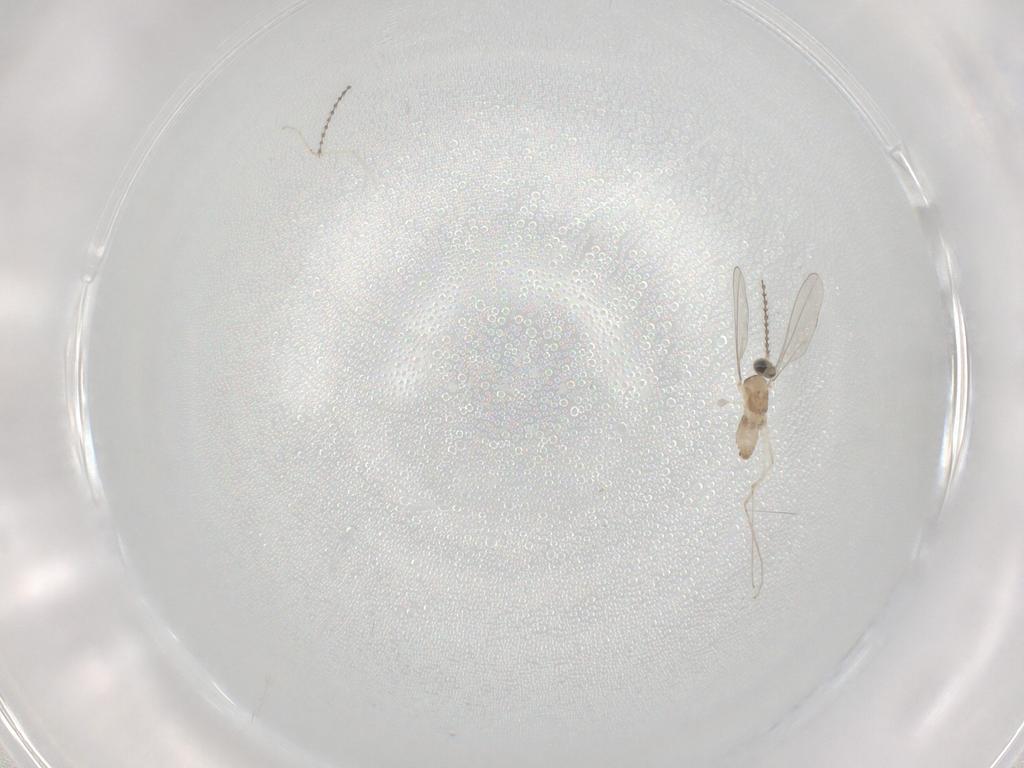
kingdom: Animalia
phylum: Arthropoda
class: Insecta
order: Diptera
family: Cecidomyiidae
